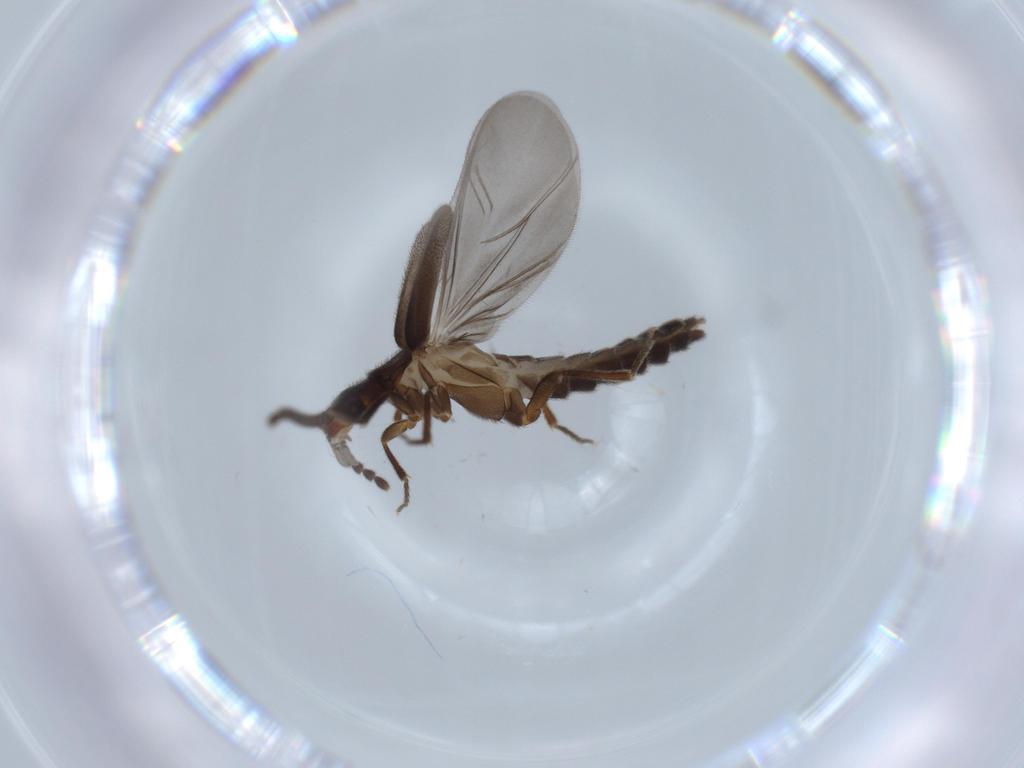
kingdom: Animalia
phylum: Arthropoda
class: Insecta
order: Coleoptera
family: Omethidae
